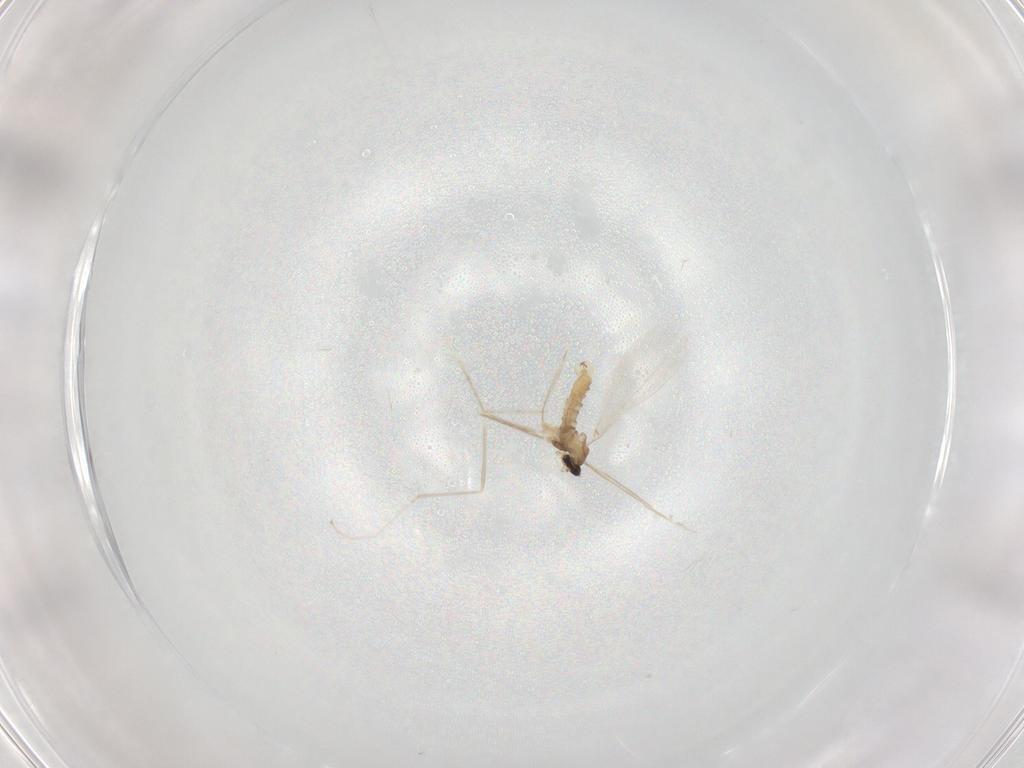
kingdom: Animalia
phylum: Arthropoda
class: Insecta
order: Diptera
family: Cecidomyiidae
